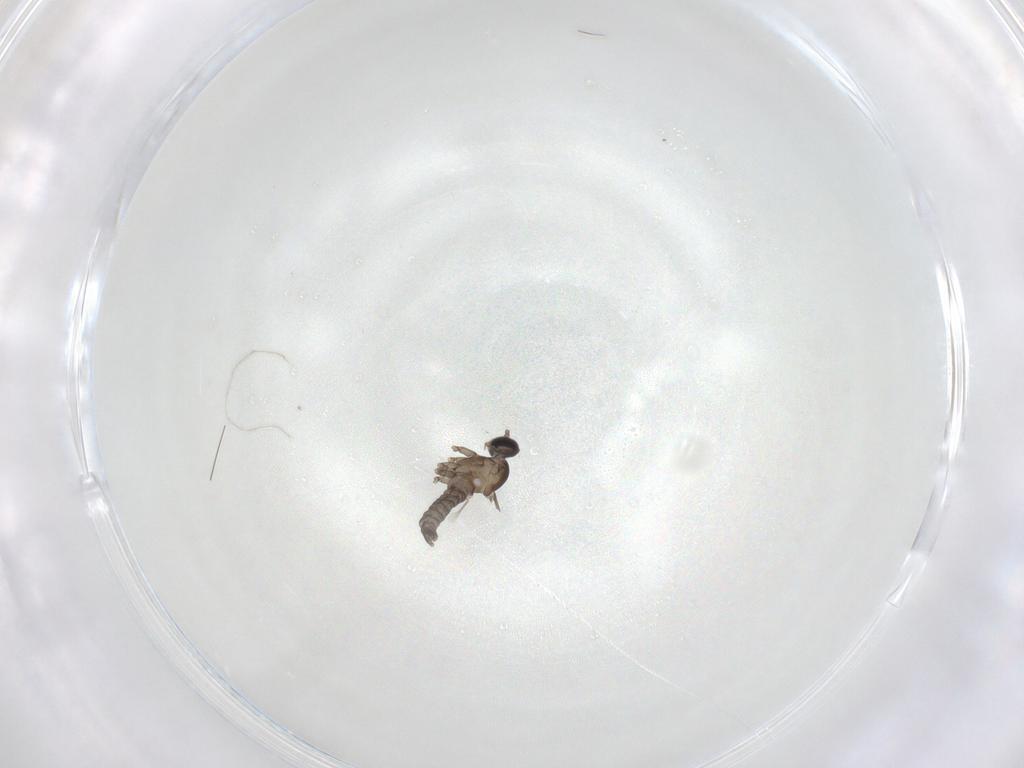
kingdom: Animalia
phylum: Arthropoda
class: Insecta
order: Diptera
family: Cecidomyiidae
